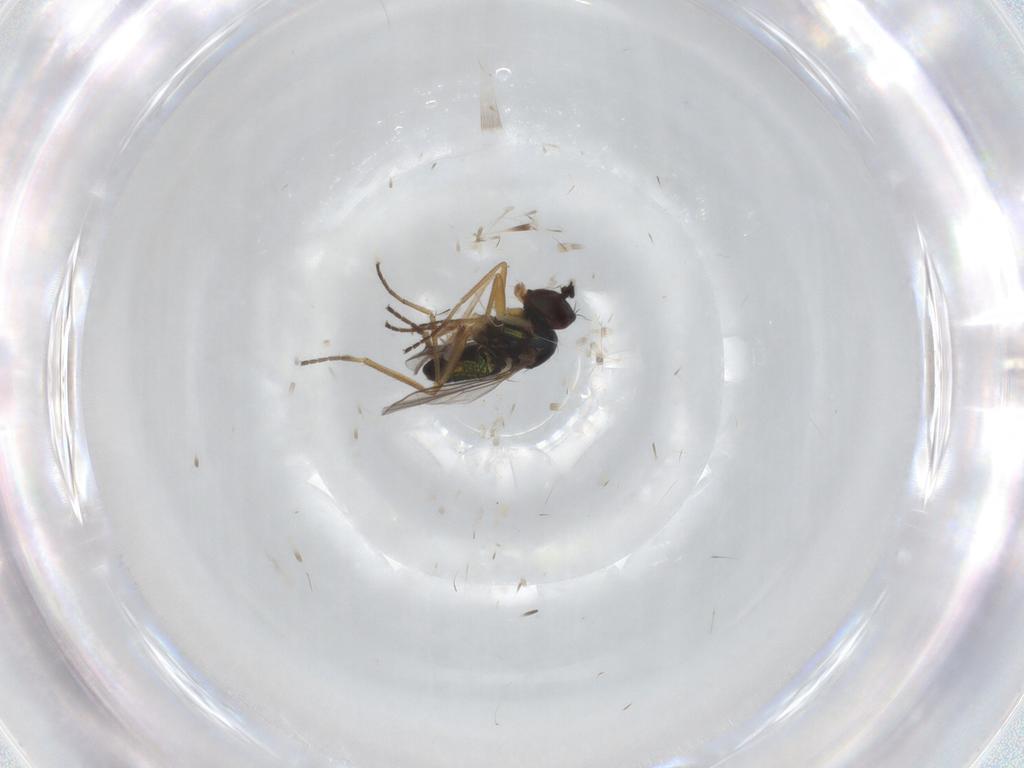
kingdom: Animalia
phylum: Arthropoda
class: Insecta
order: Diptera
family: Dolichopodidae
